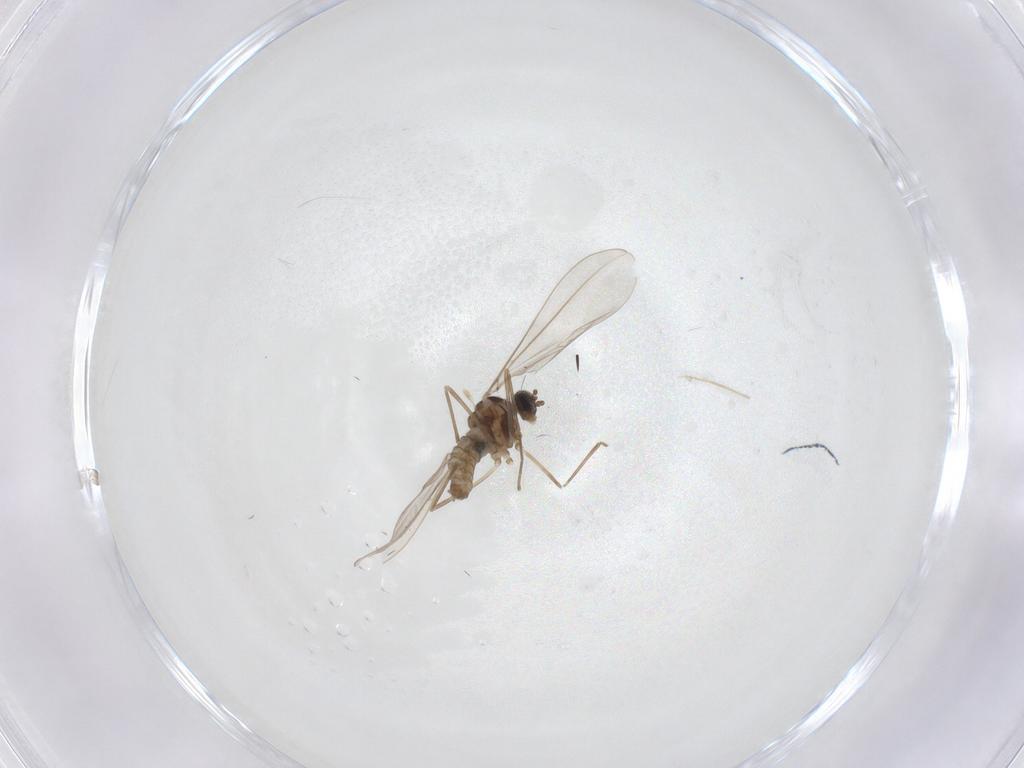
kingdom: Animalia
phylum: Arthropoda
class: Insecta
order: Diptera
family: Cecidomyiidae
